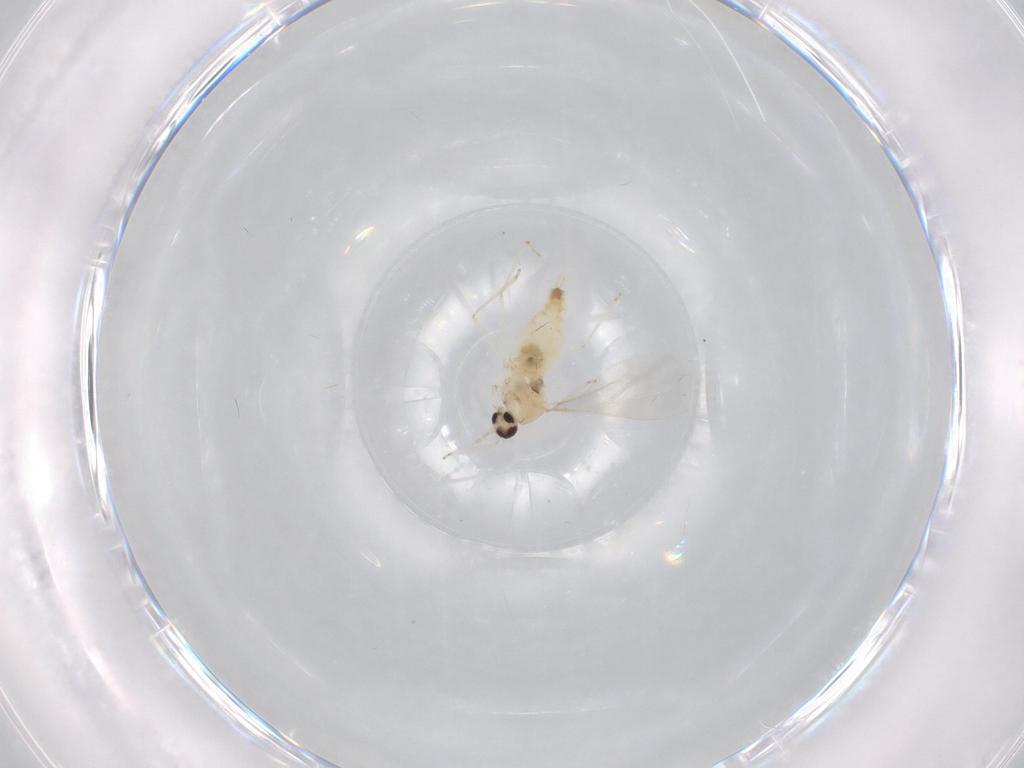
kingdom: Animalia
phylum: Arthropoda
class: Insecta
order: Diptera
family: Cecidomyiidae
